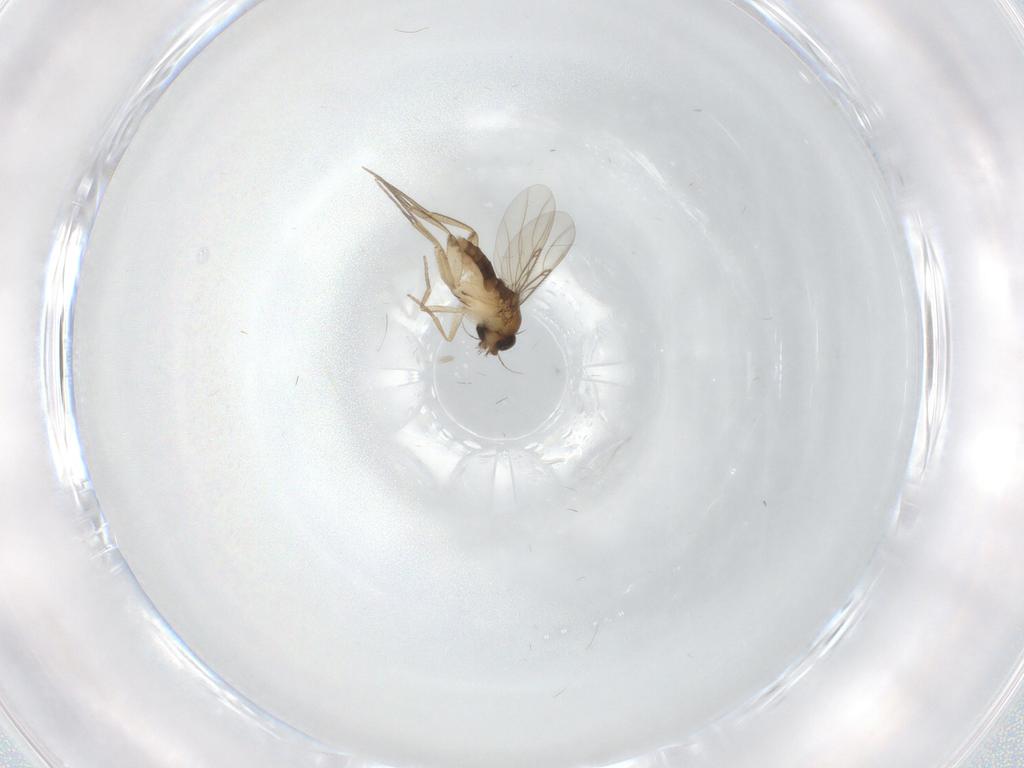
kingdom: Animalia
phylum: Arthropoda
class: Insecta
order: Diptera
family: Phoridae
